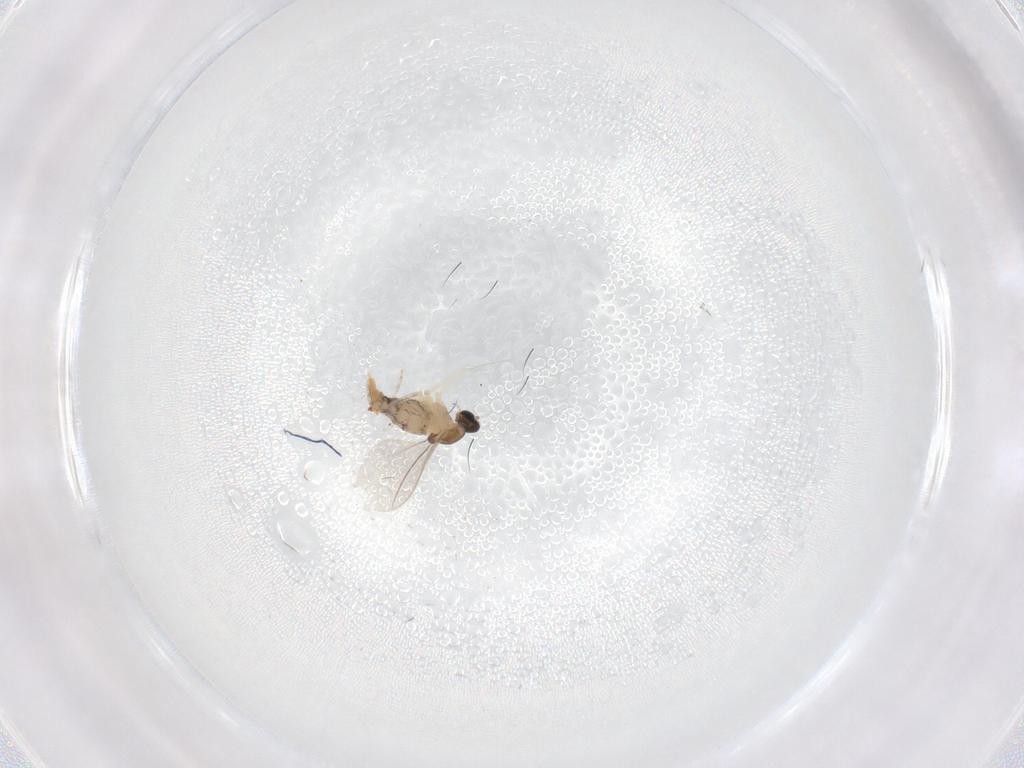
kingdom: Animalia
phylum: Arthropoda
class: Insecta
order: Diptera
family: Cecidomyiidae
